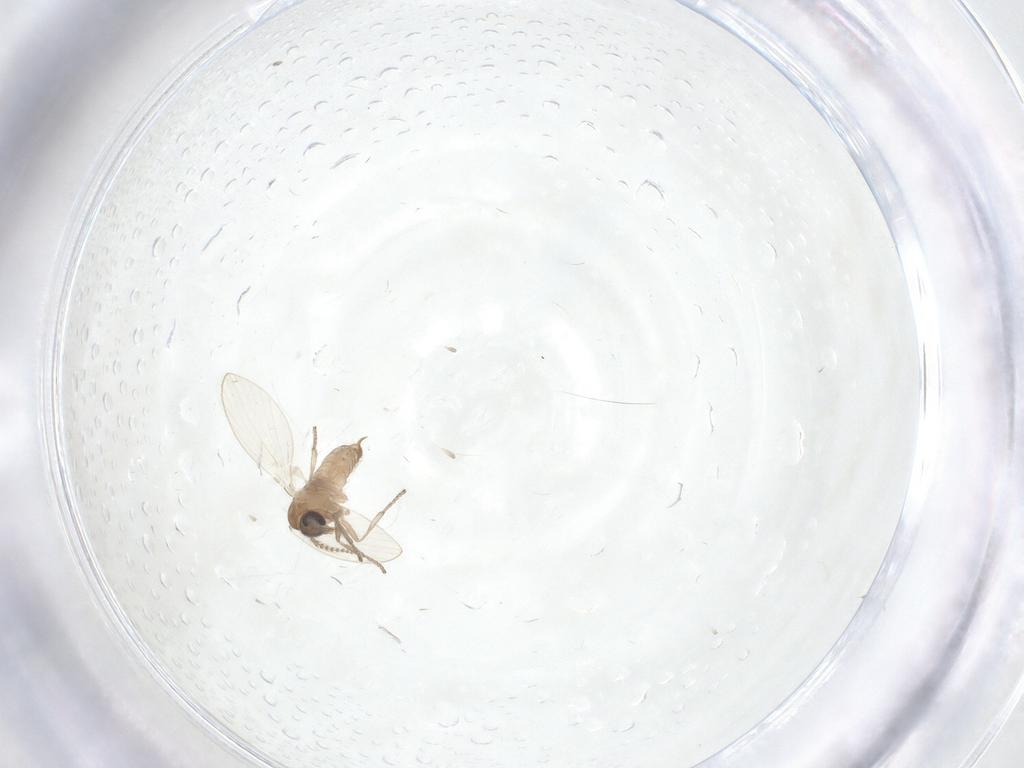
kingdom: Animalia
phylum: Arthropoda
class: Insecta
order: Diptera
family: Limoniidae
